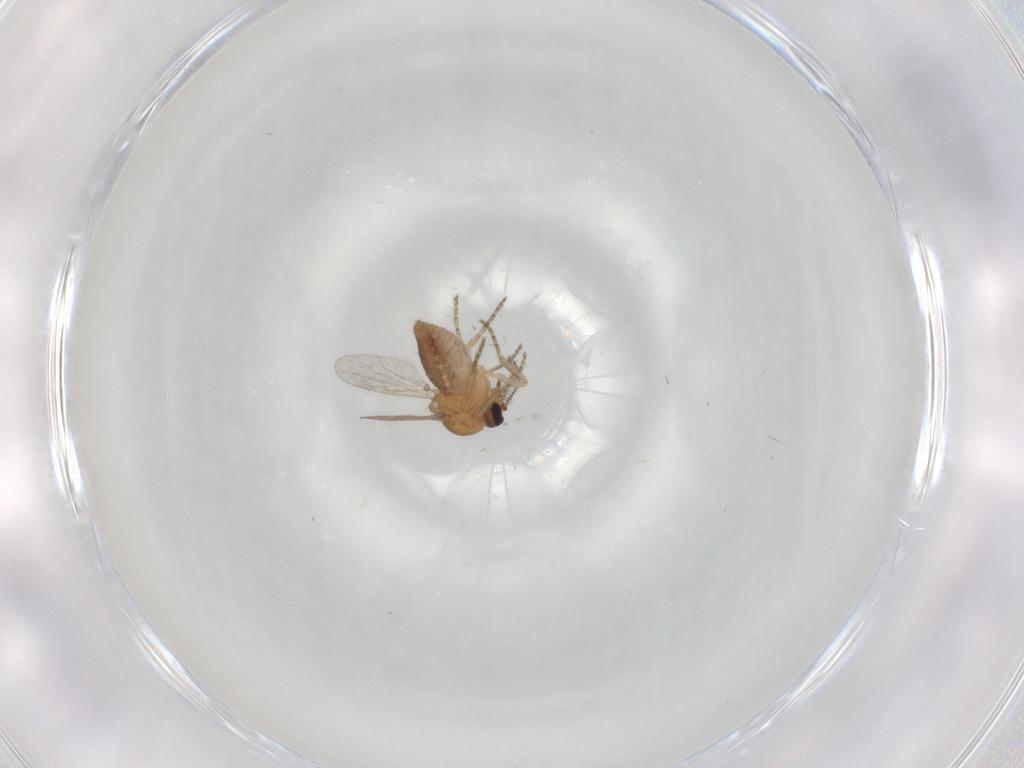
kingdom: Animalia
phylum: Arthropoda
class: Insecta
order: Diptera
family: Ceratopogonidae
